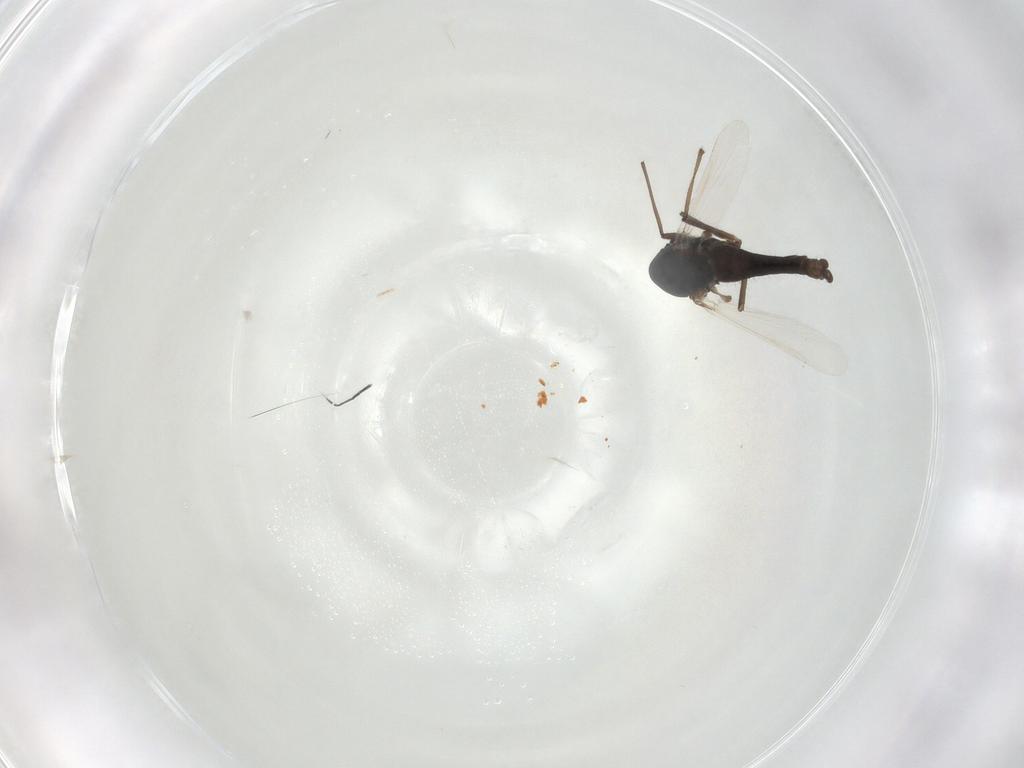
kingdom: Animalia
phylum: Arthropoda
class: Insecta
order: Diptera
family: Chironomidae
